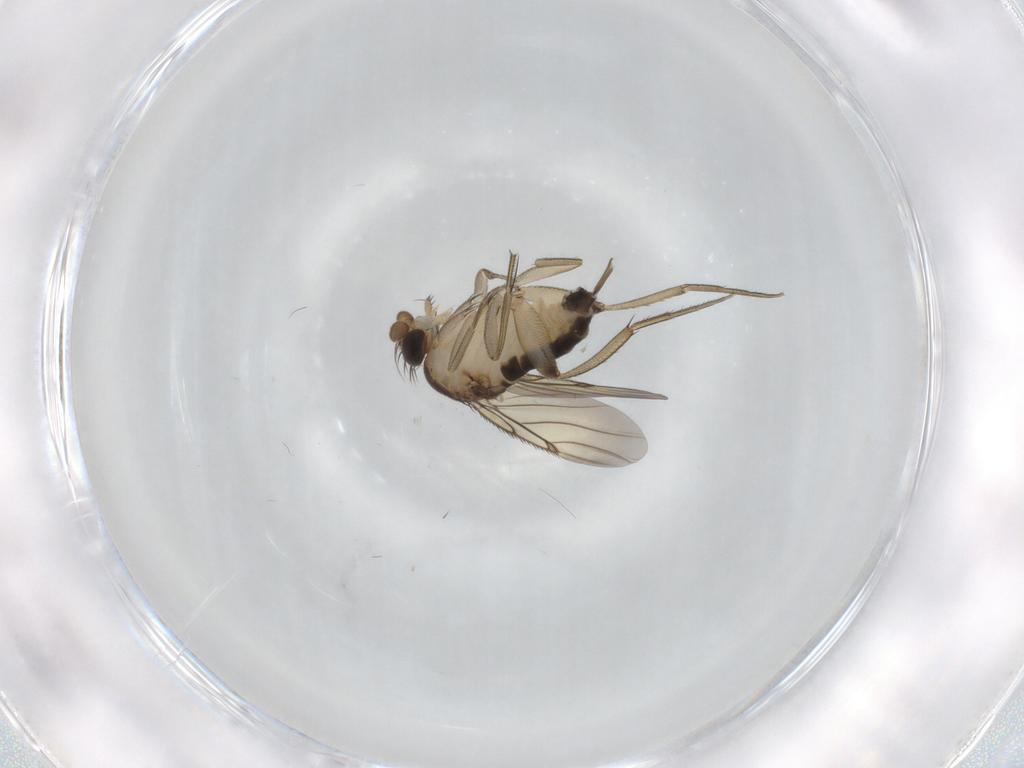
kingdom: Animalia
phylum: Arthropoda
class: Insecta
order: Diptera
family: Phoridae
